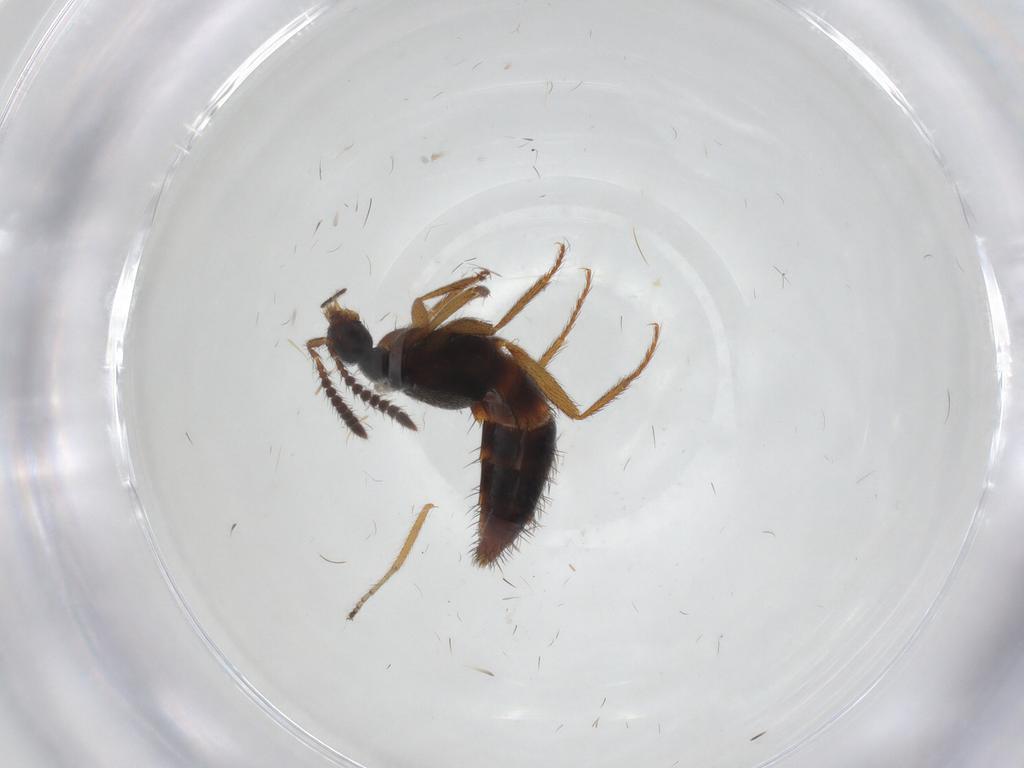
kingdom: Animalia
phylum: Arthropoda
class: Insecta
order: Coleoptera
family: Staphylinidae
